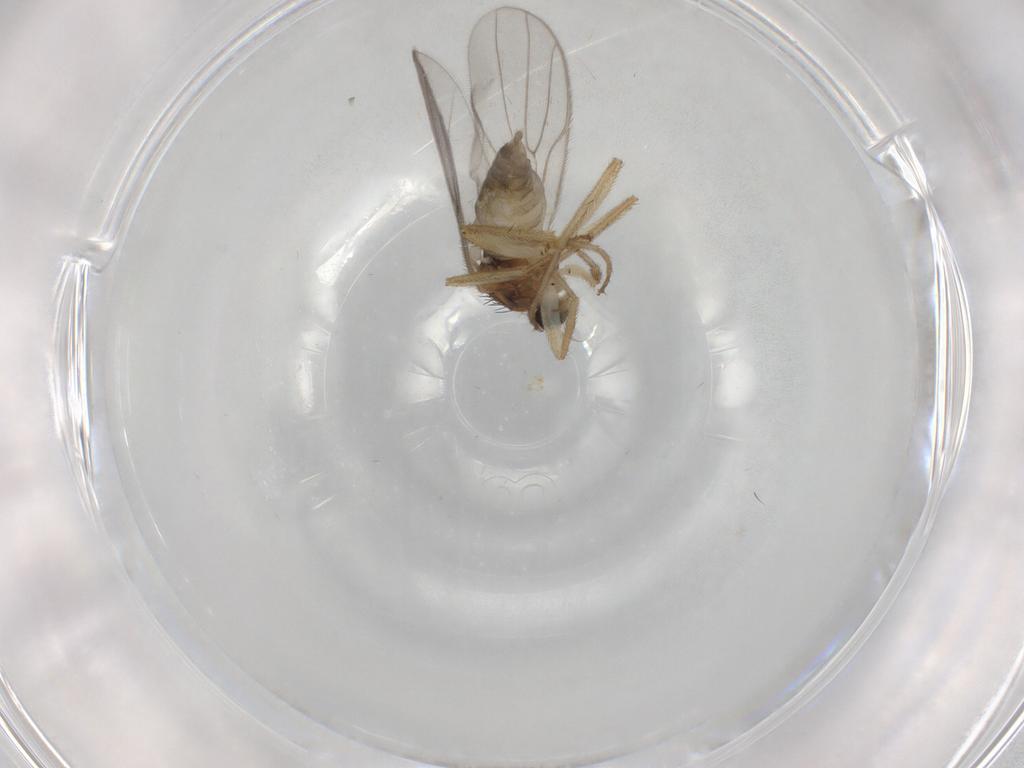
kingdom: Animalia
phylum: Arthropoda
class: Insecta
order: Diptera
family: Hybotidae
